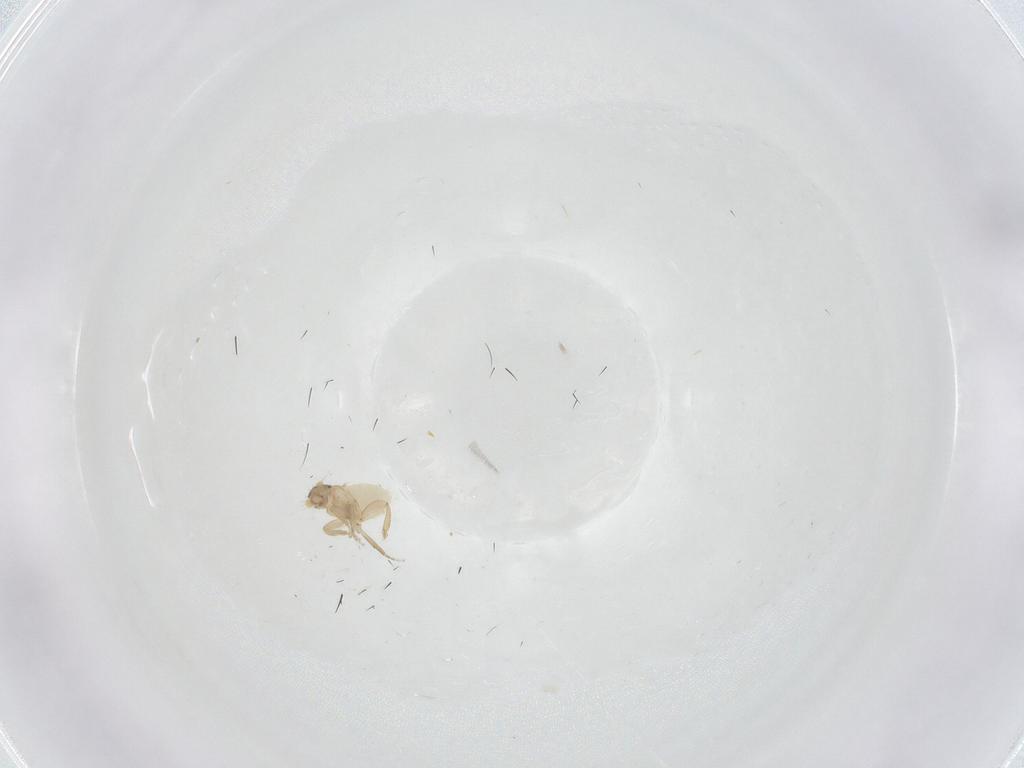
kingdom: Animalia
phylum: Arthropoda
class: Insecta
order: Diptera
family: Phoridae
